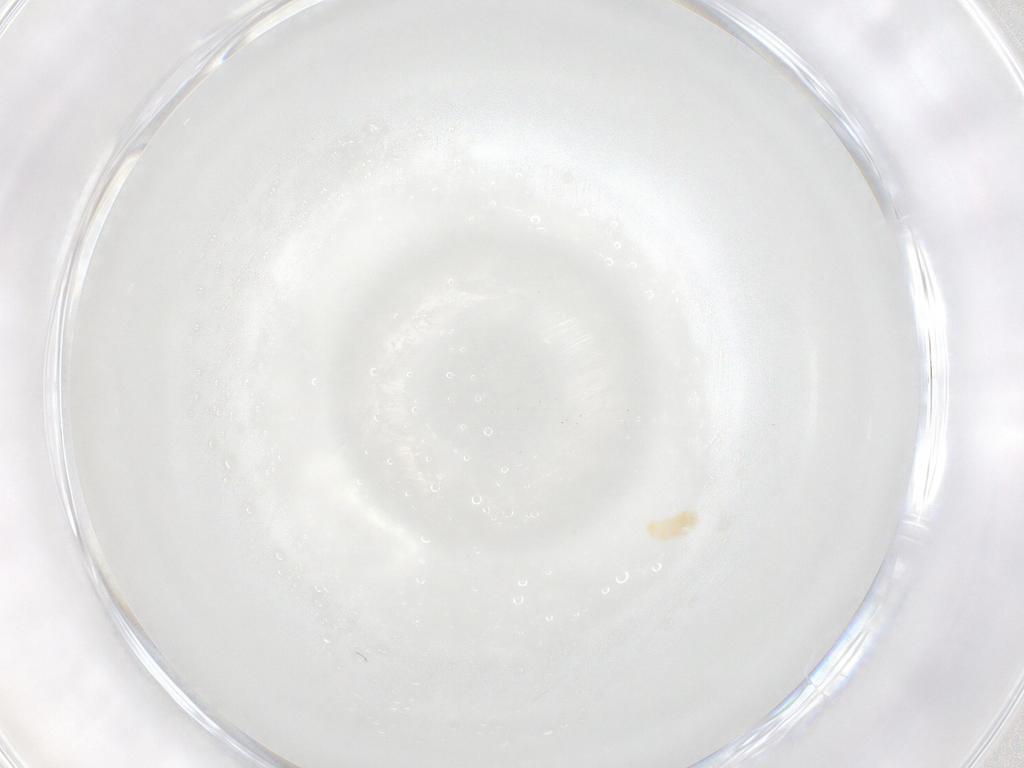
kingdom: Animalia
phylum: Arthropoda
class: Arachnida
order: Trombidiformes
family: Eupodidae
